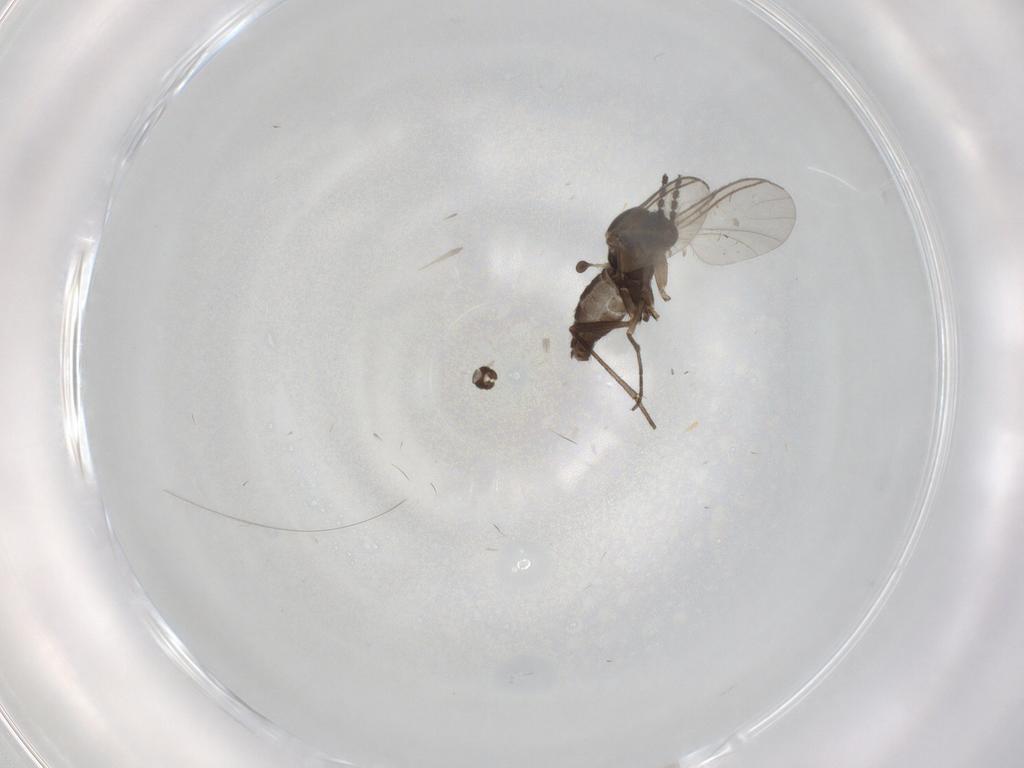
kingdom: Animalia
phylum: Arthropoda
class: Insecta
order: Diptera
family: Sciaridae
